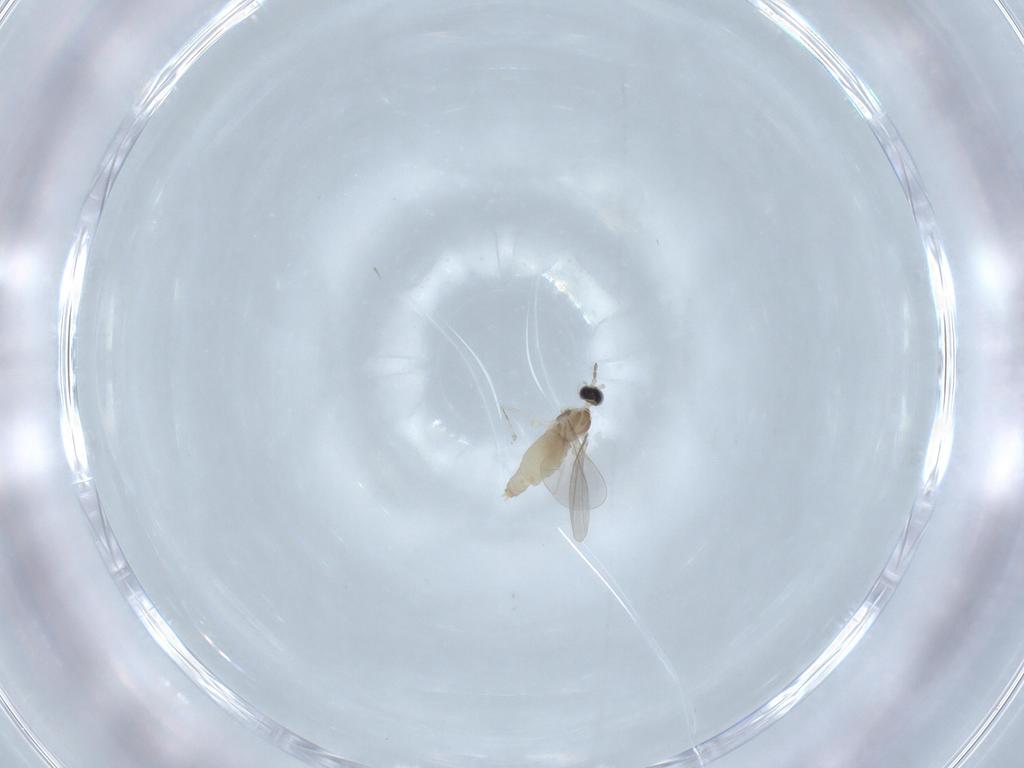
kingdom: Animalia
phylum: Arthropoda
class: Insecta
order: Diptera
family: Cecidomyiidae
